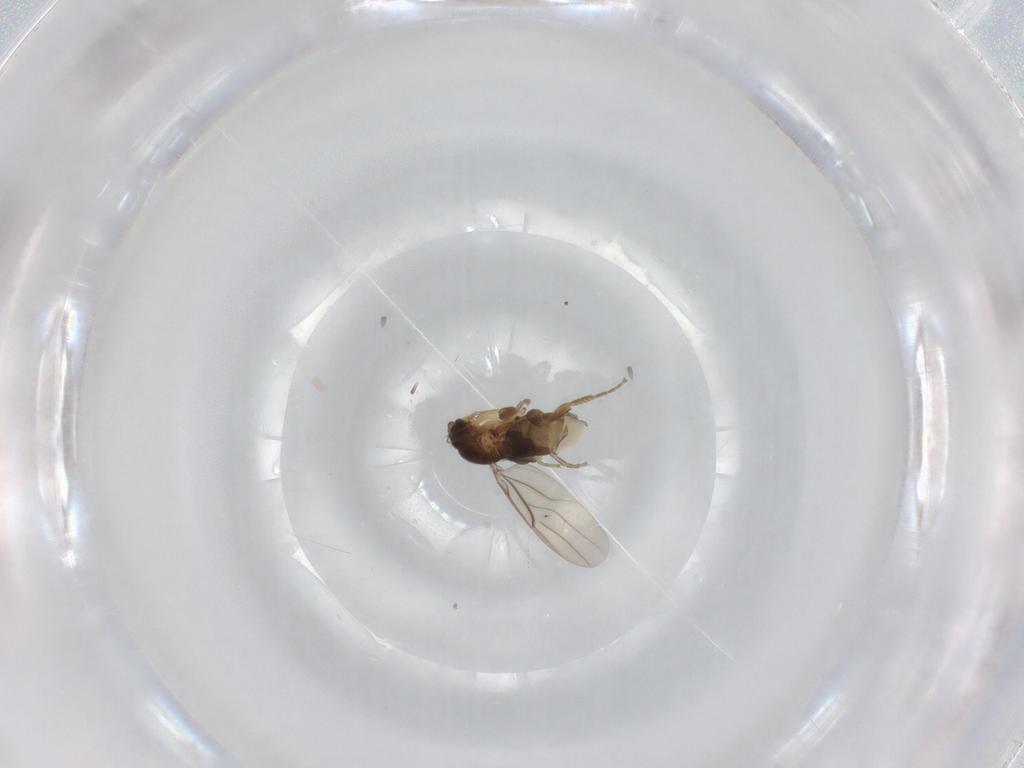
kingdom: Animalia
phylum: Arthropoda
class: Insecta
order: Diptera
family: Phoridae
